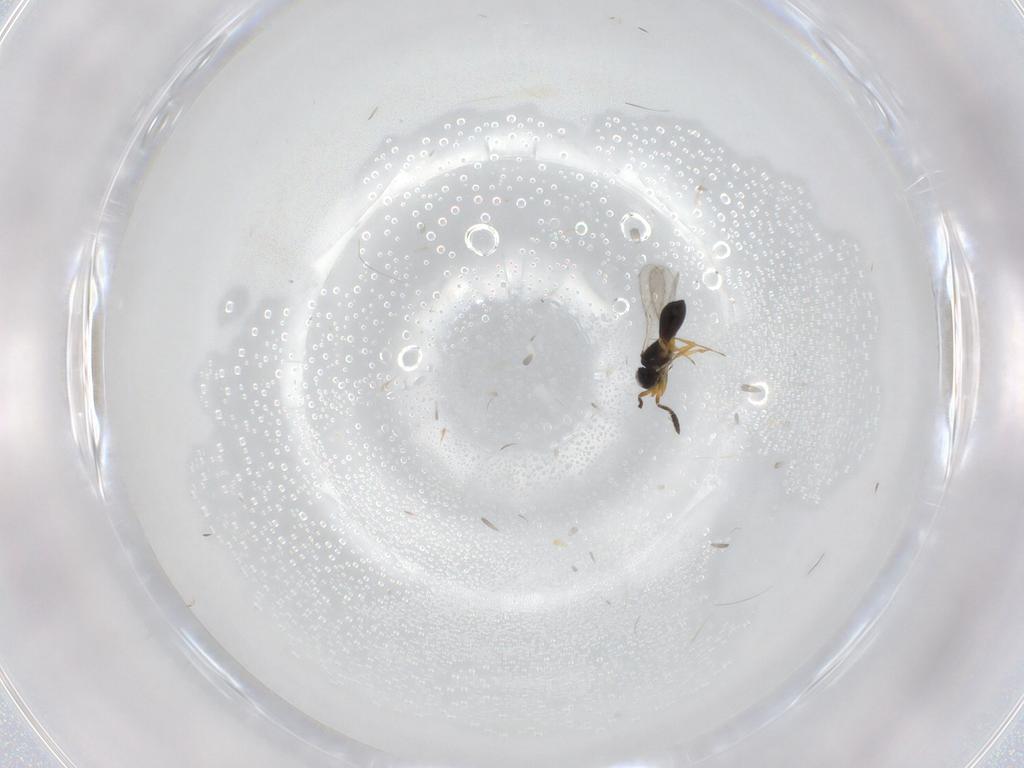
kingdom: Animalia
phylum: Arthropoda
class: Insecta
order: Hymenoptera
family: Scelionidae
